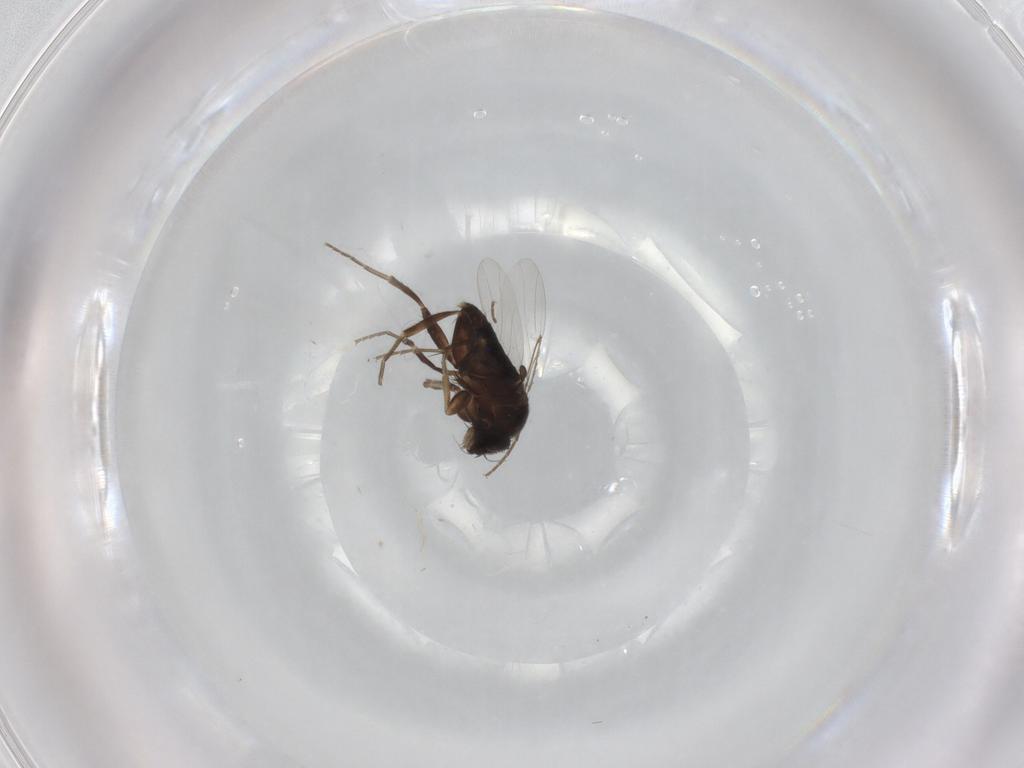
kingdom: Animalia
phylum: Arthropoda
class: Insecta
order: Diptera
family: Phoridae
